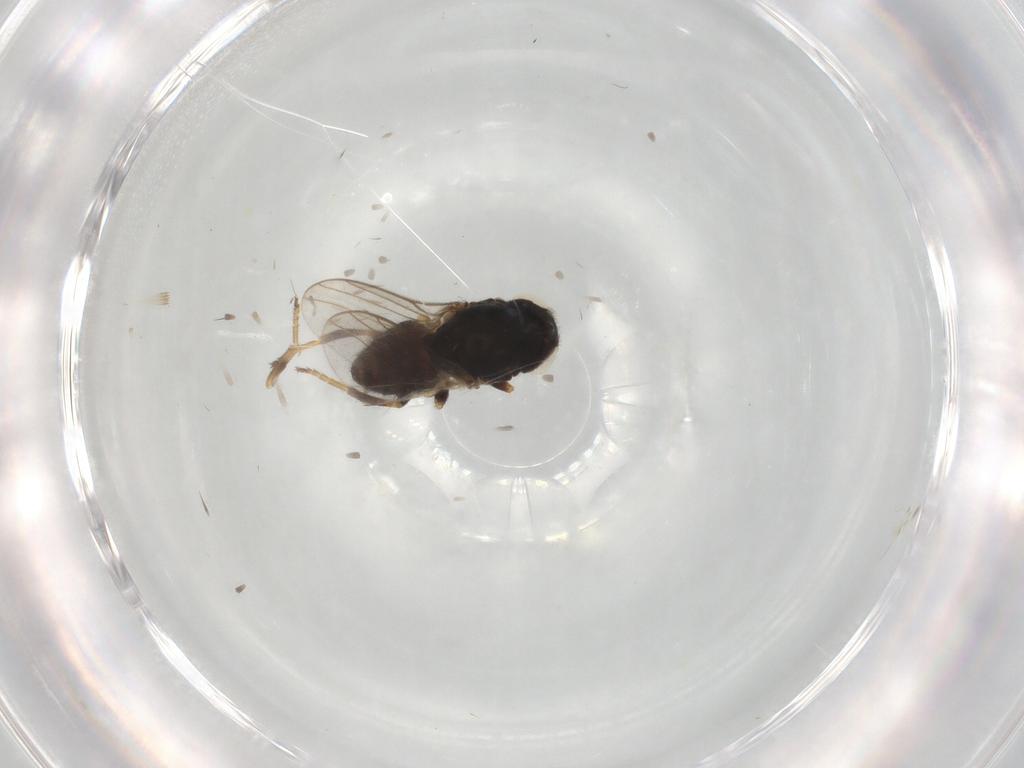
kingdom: Animalia
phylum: Arthropoda
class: Insecta
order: Diptera
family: Chloropidae
